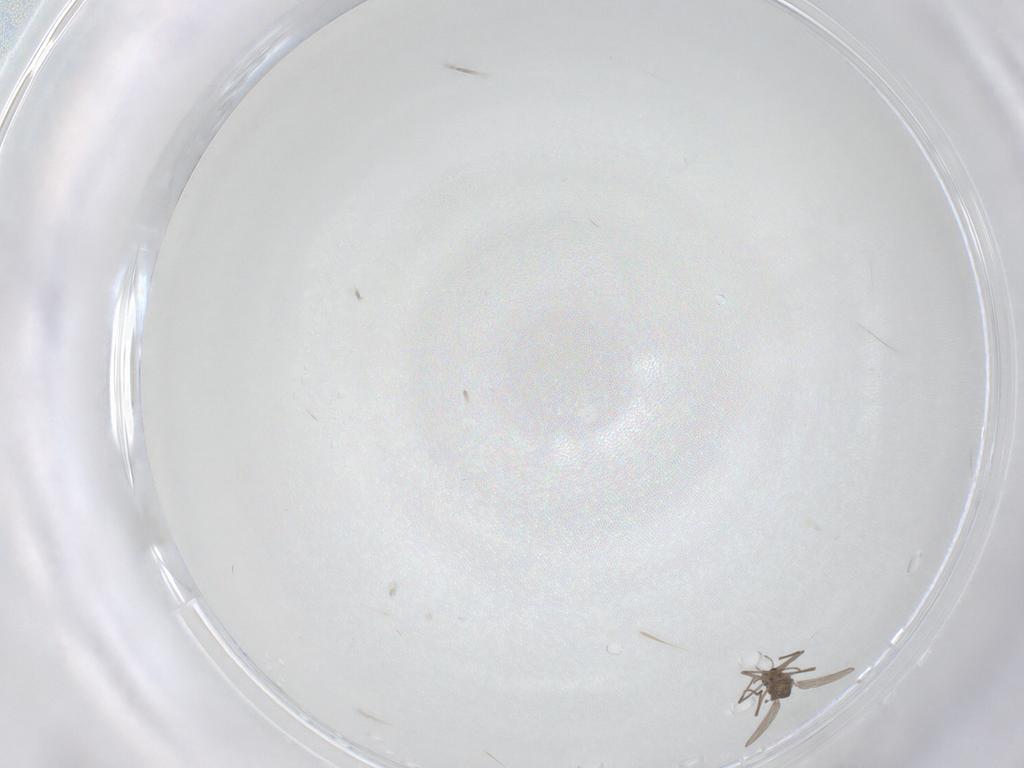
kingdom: Animalia
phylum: Arthropoda
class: Insecta
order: Diptera
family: Chironomidae
